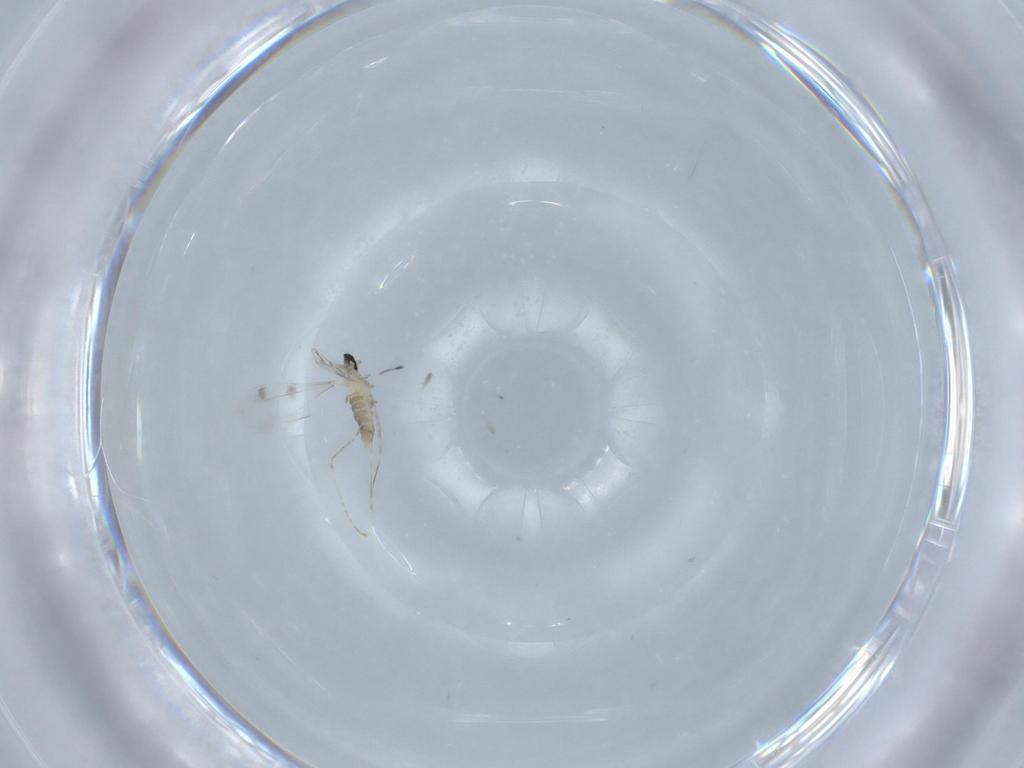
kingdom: Animalia
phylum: Arthropoda
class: Insecta
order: Diptera
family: Cecidomyiidae
